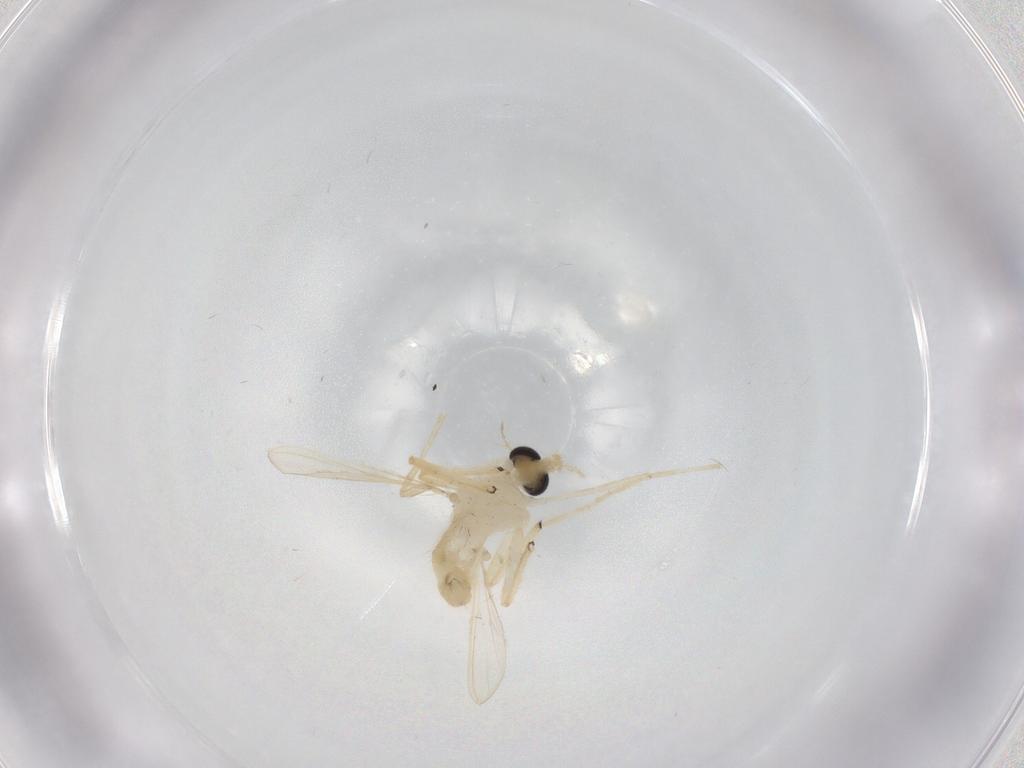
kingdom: Animalia
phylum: Arthropoda
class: Insecta
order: Diptera
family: Chironomidae
